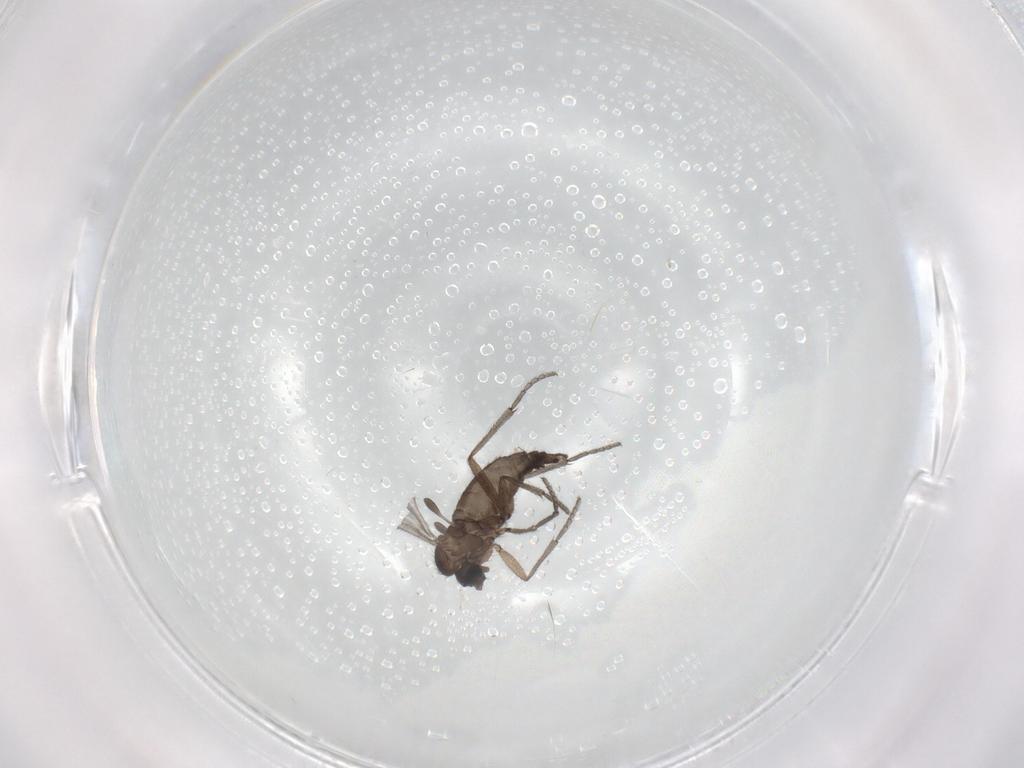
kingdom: Animalia
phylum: Arthropoda
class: Insecta
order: Diptera
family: Sciaridae
